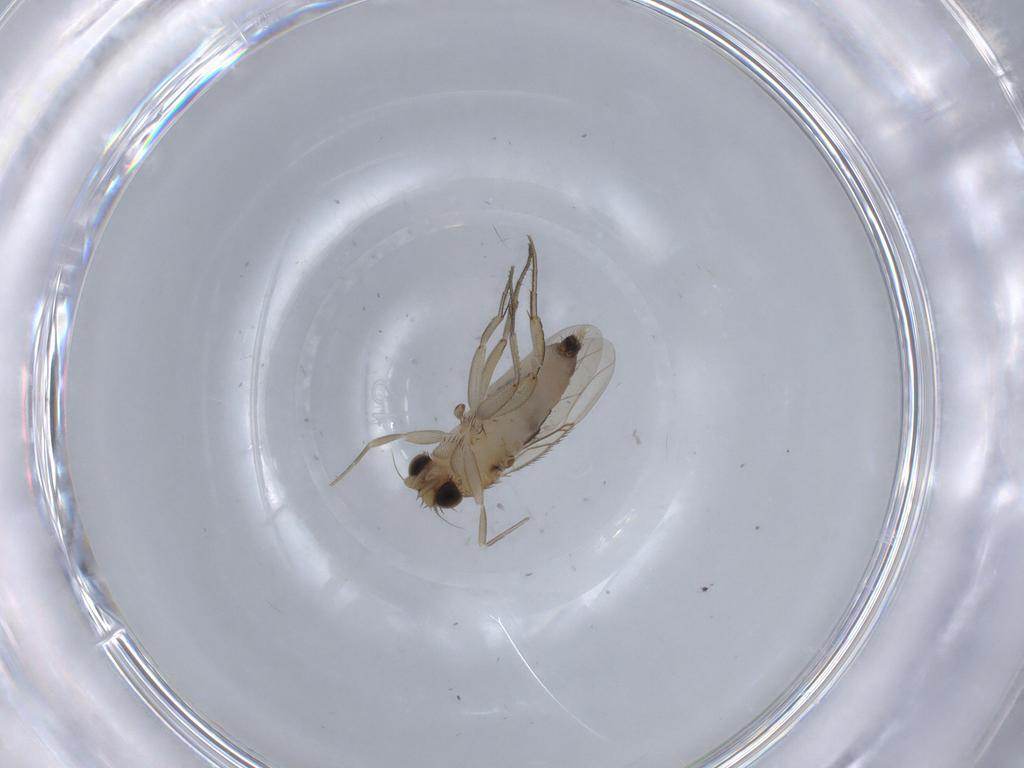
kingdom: Animalia
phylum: Arthropoda
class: Insecta
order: Diptera
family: Phoridae
